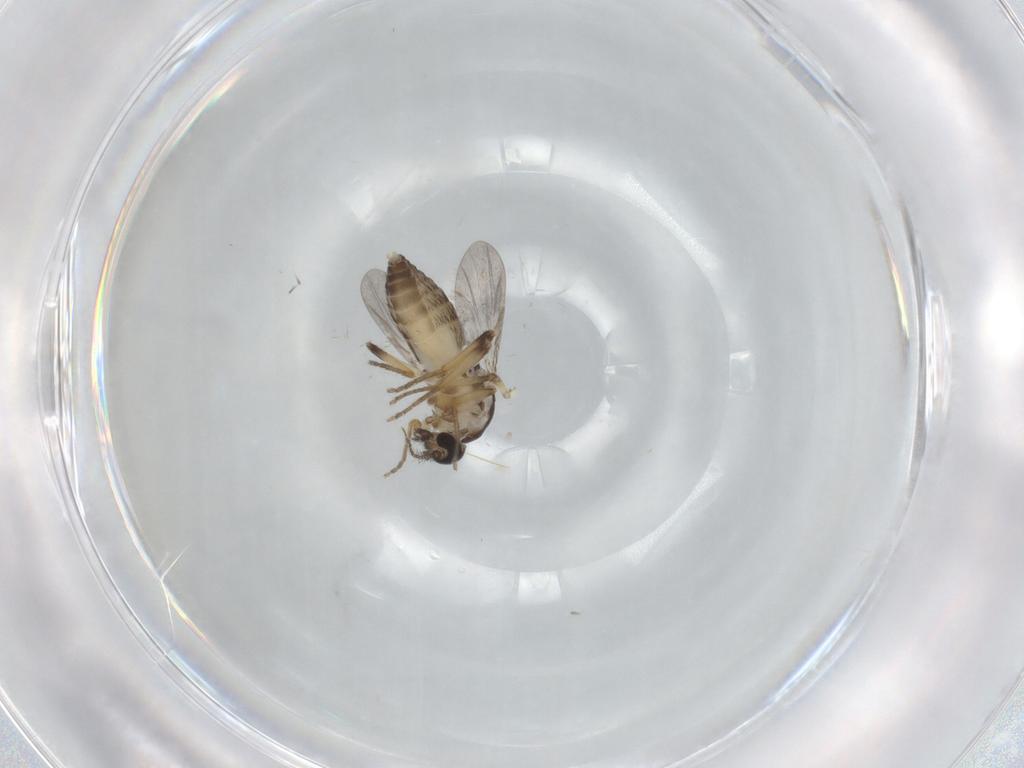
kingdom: Animalia
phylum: Arthropoda
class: Insecta
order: Diptera
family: Ceratopogonidae
